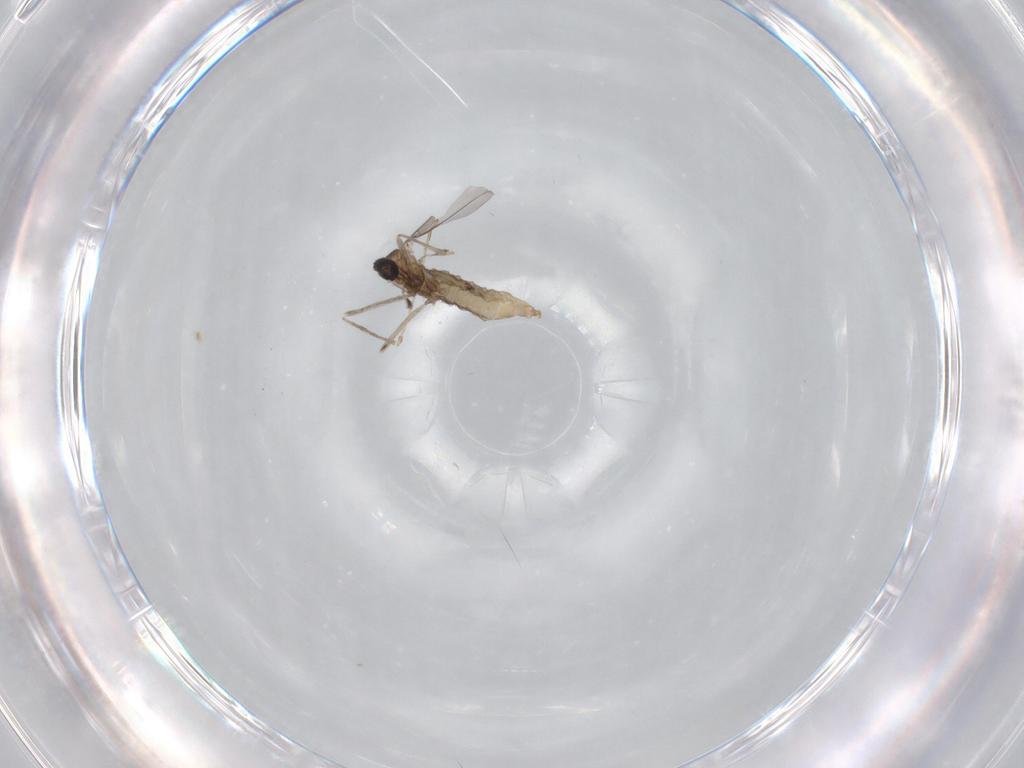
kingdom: Animalia
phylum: Arthropoda
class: Insecta
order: Diptera
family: Cecidomyiidae
